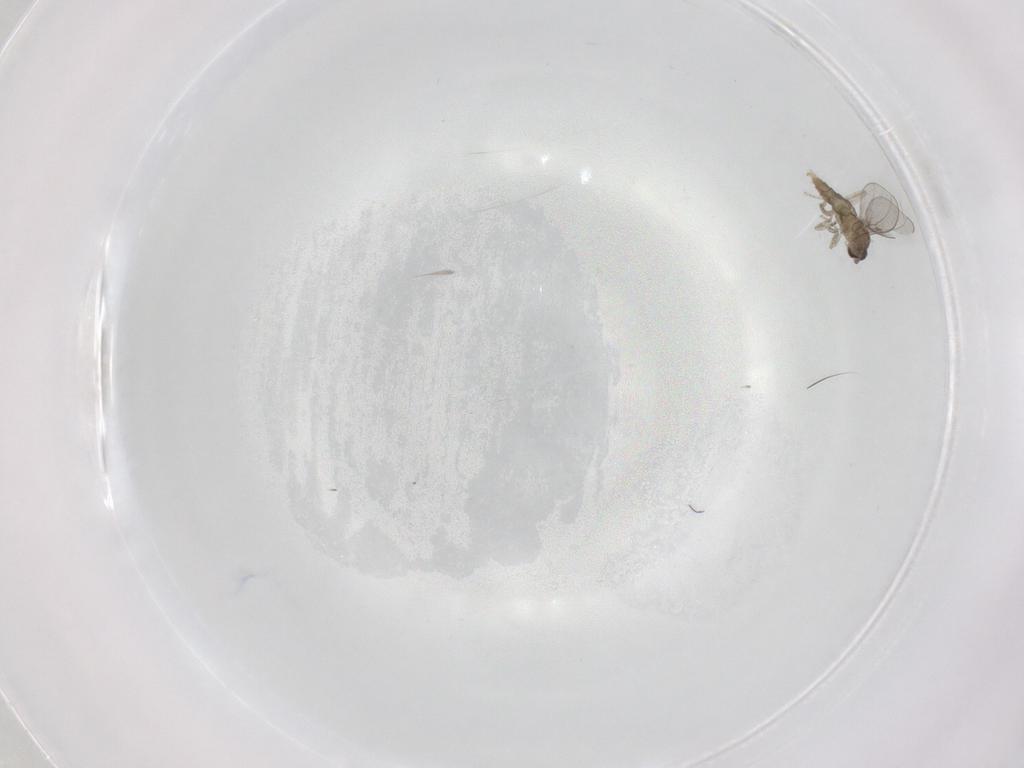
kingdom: Animalia
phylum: Arthropoda
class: Insecta
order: Diptera
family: Cecidomyiidae
